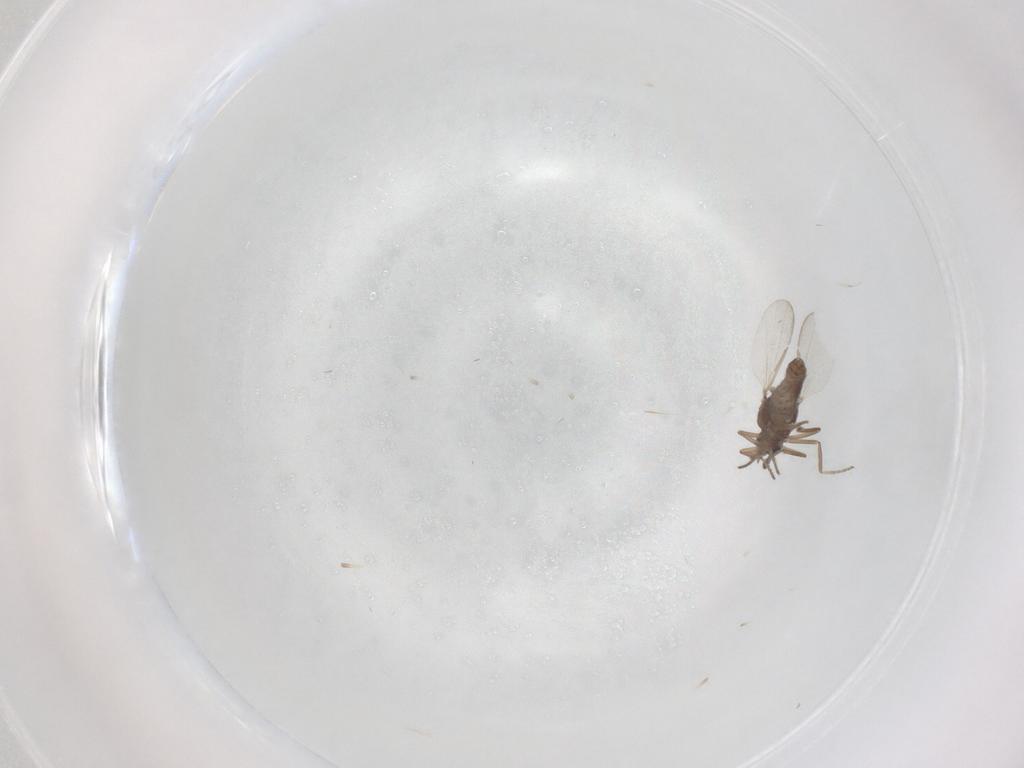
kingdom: Animalia
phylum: Arthropoda
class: Insecta
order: Diptera
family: Ceratopogonidae
